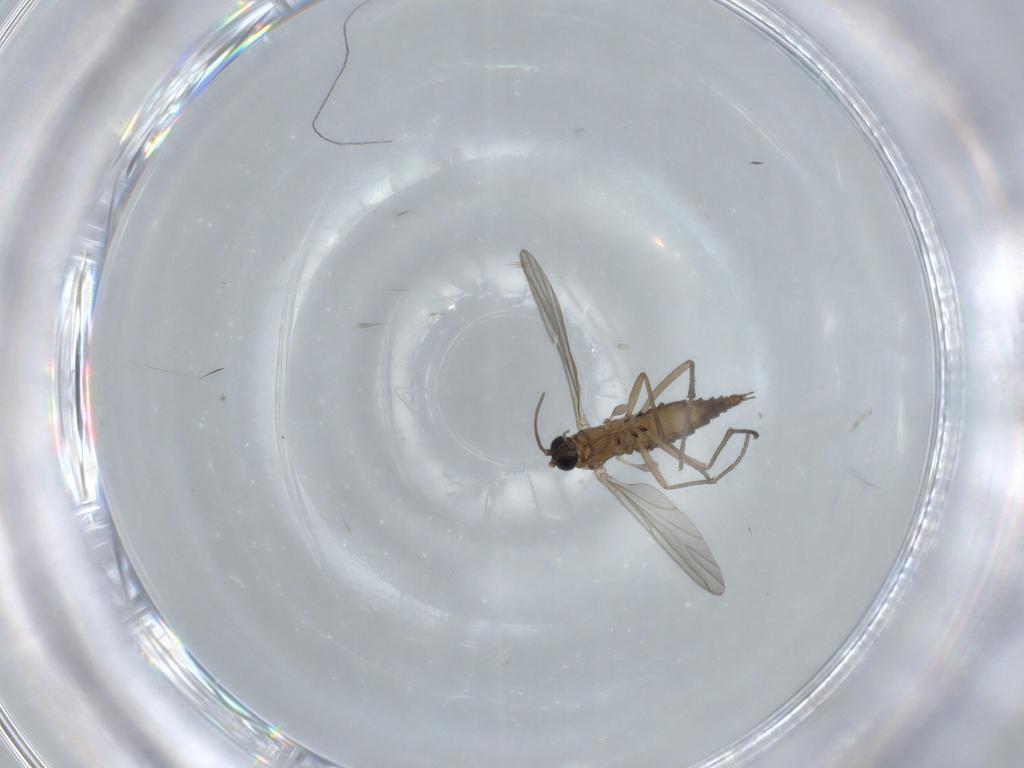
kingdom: Animalia
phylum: Arthropoda
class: Insecta
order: Diptera
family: Sciaridae
